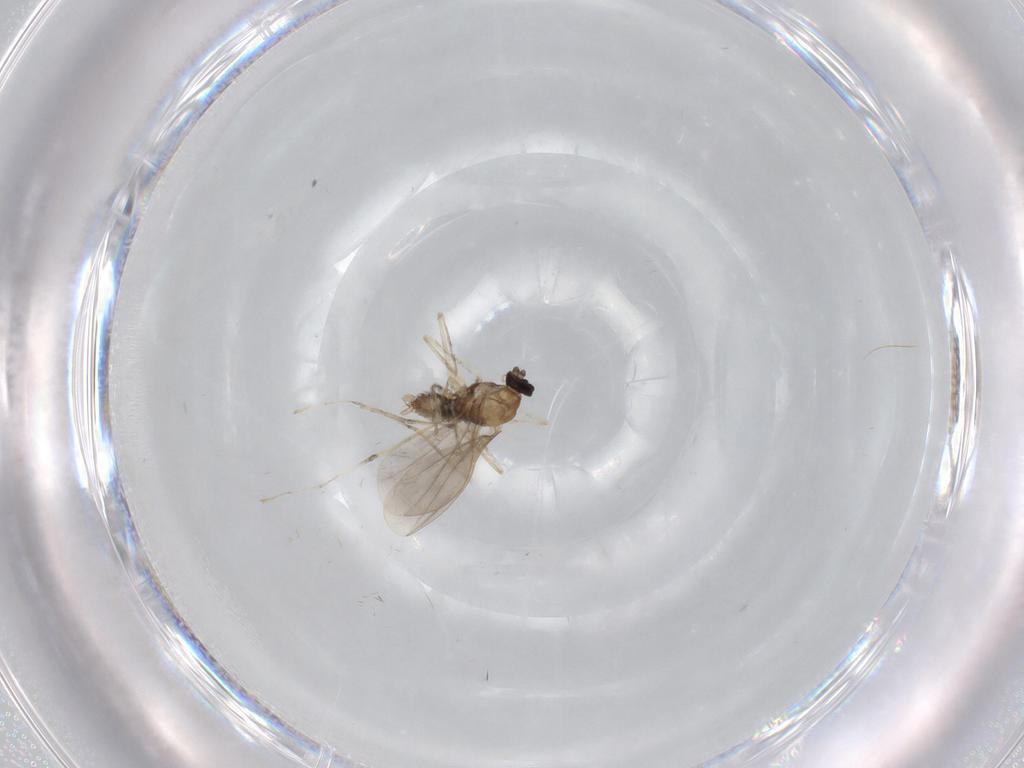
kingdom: Animalia
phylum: Arthropoda
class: Insecta
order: Diptera
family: Cecidomyiidae
